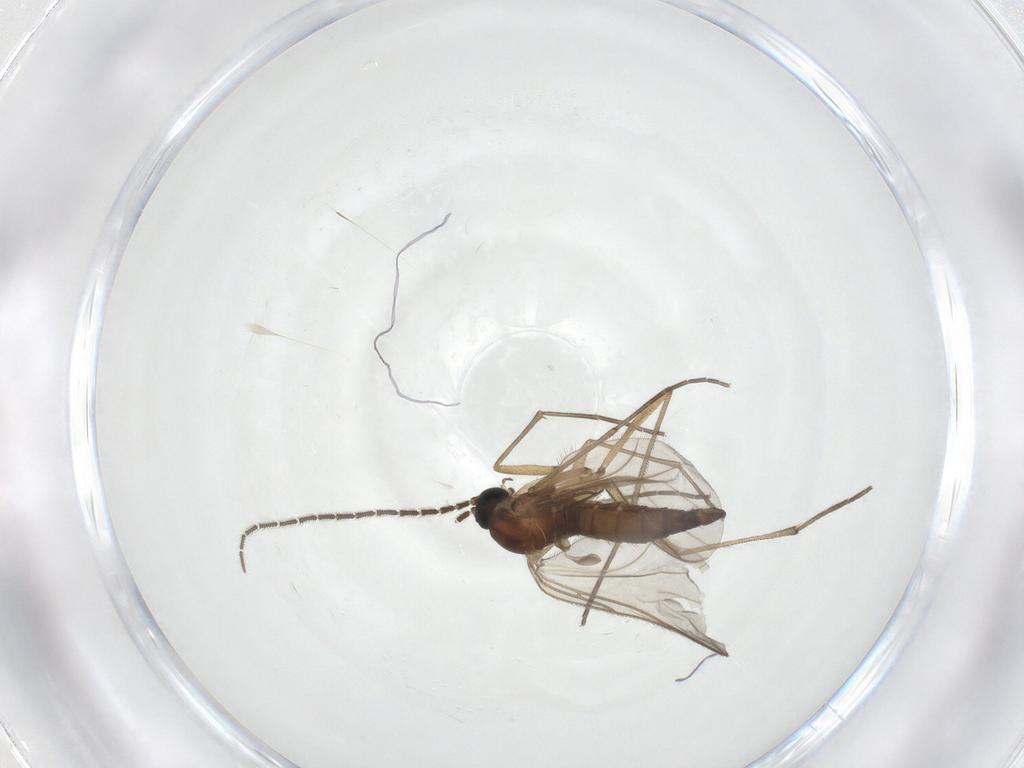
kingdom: Animalia
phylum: Arthropoda
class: Insecta
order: Diptera
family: Sciaridae
